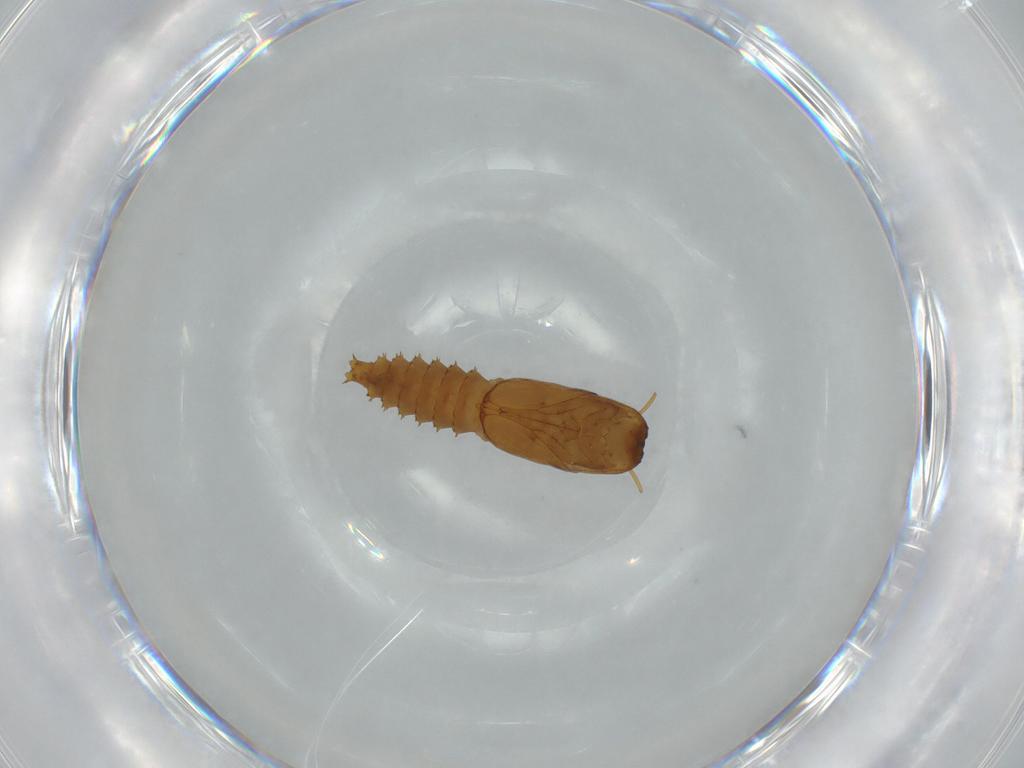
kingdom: Animalia
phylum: Arthropoda
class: Insecta
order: Diptera
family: Ceratopogonidae
